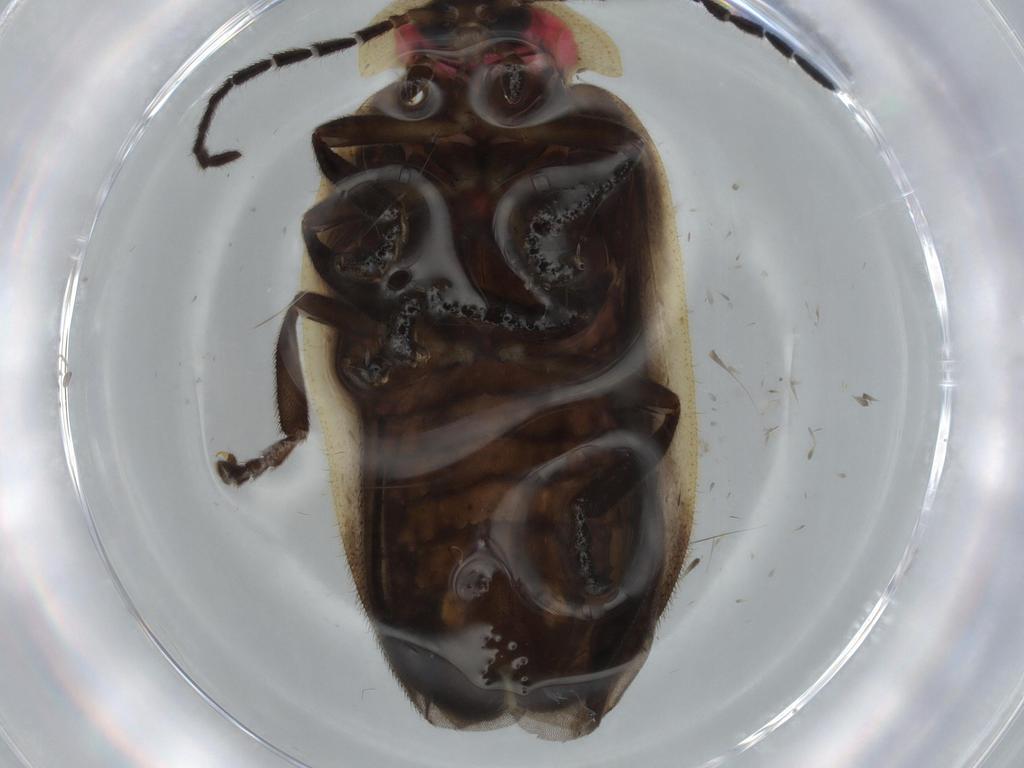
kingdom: Animalia
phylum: Arthropoda
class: Insecta
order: Coleoptera
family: Lampyridae
